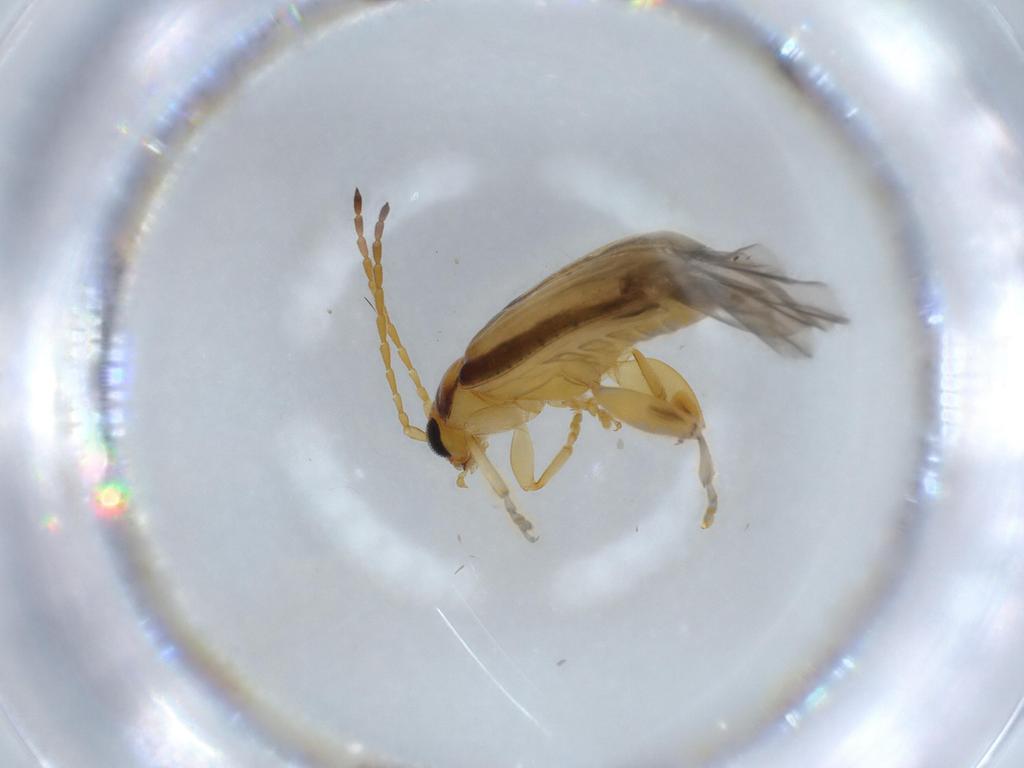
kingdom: Animalia
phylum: Arthropoda
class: Insecta
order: Coleoptera
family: Chrysomelidae
